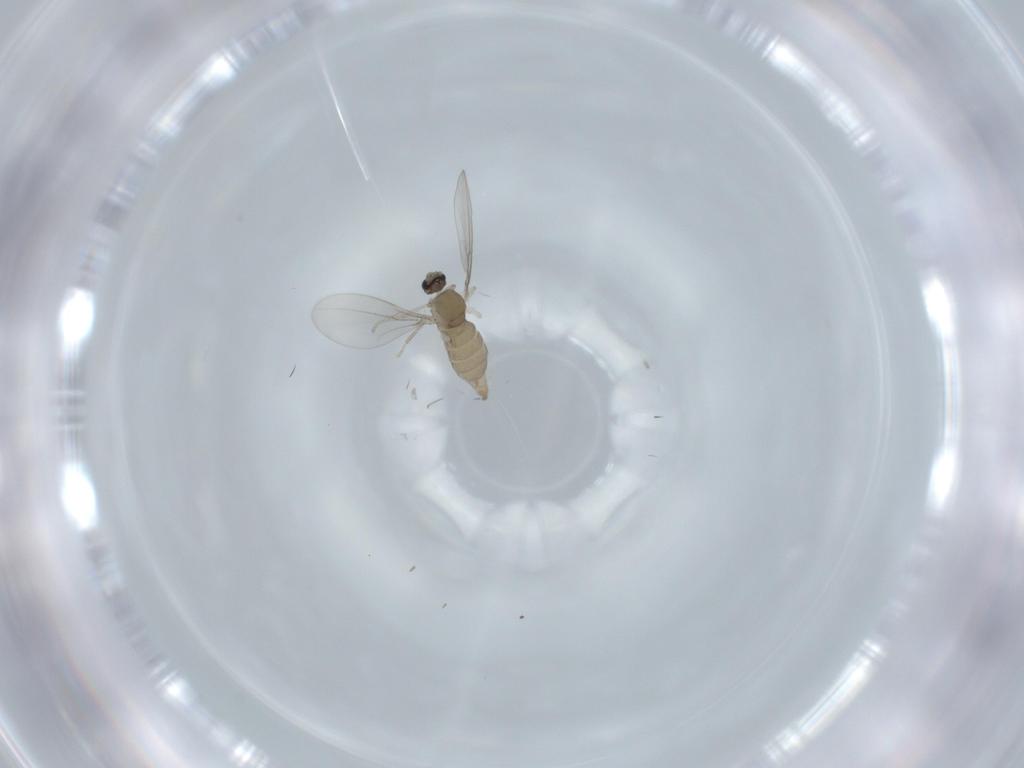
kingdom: Animalia
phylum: Arthropoda
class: Insecta
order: Diptera
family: Cecidomyiidae
